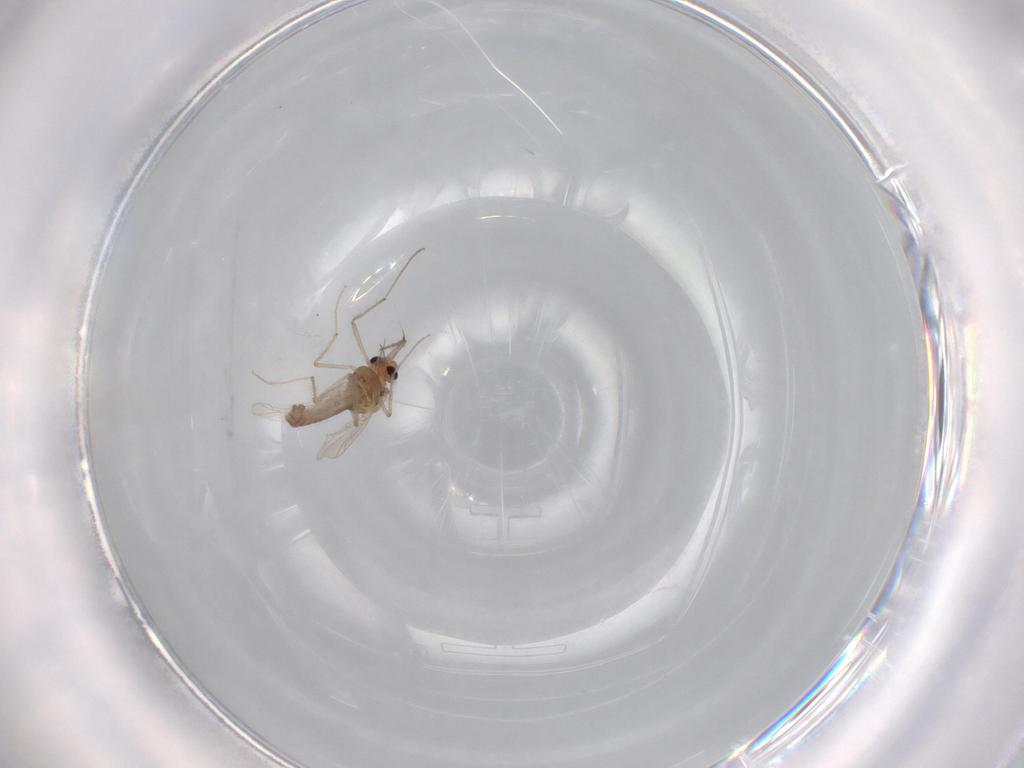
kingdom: Animalia
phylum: Arthropoda
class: Insecta
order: Diptera
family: Chironomidae
